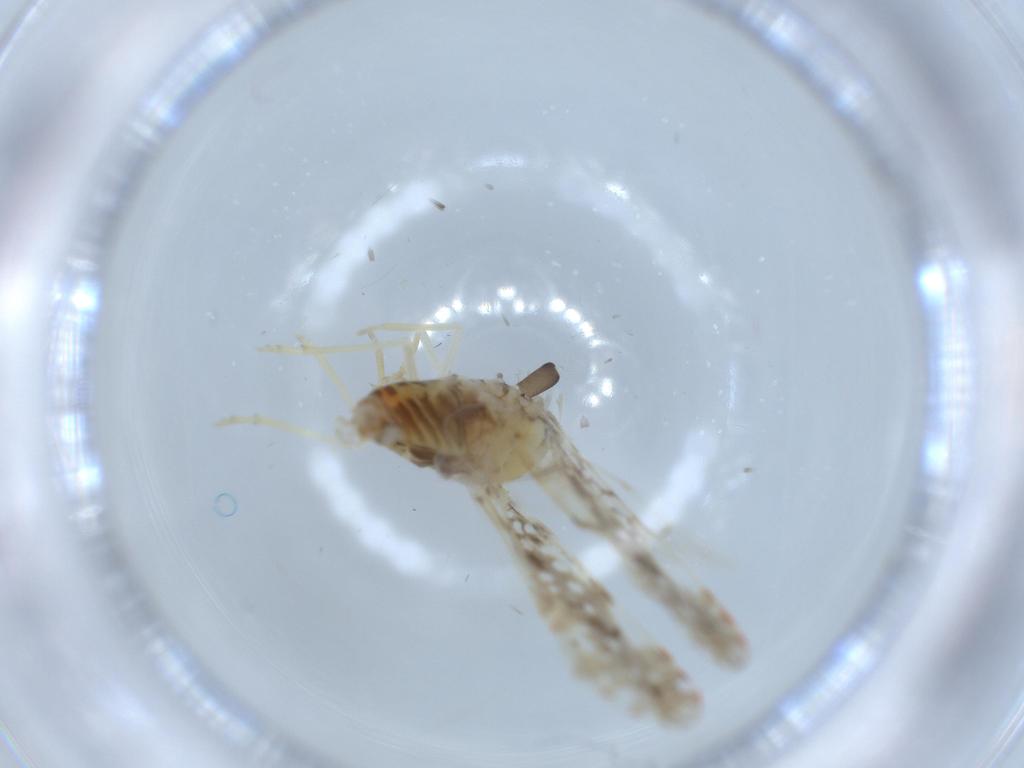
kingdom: Animalia
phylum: Arthropoda
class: Insecta
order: Hemiptera
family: Derbidae
